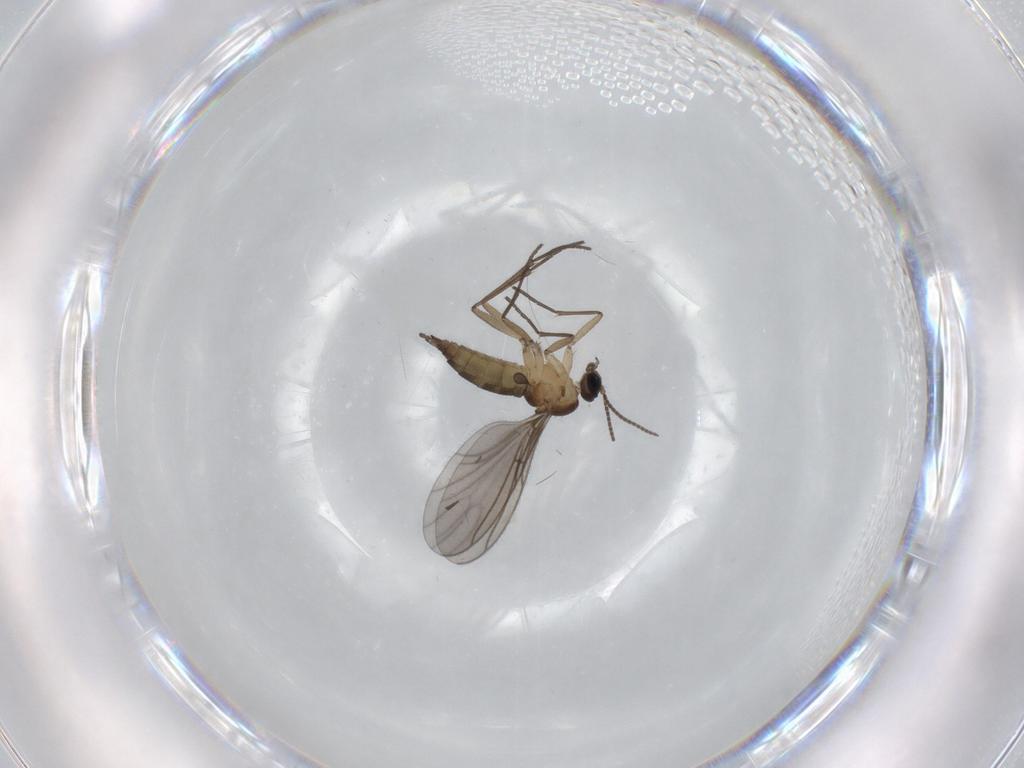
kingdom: Animalia
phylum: Arthropoda
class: Insecta
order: Diptera
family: Sciaridae
